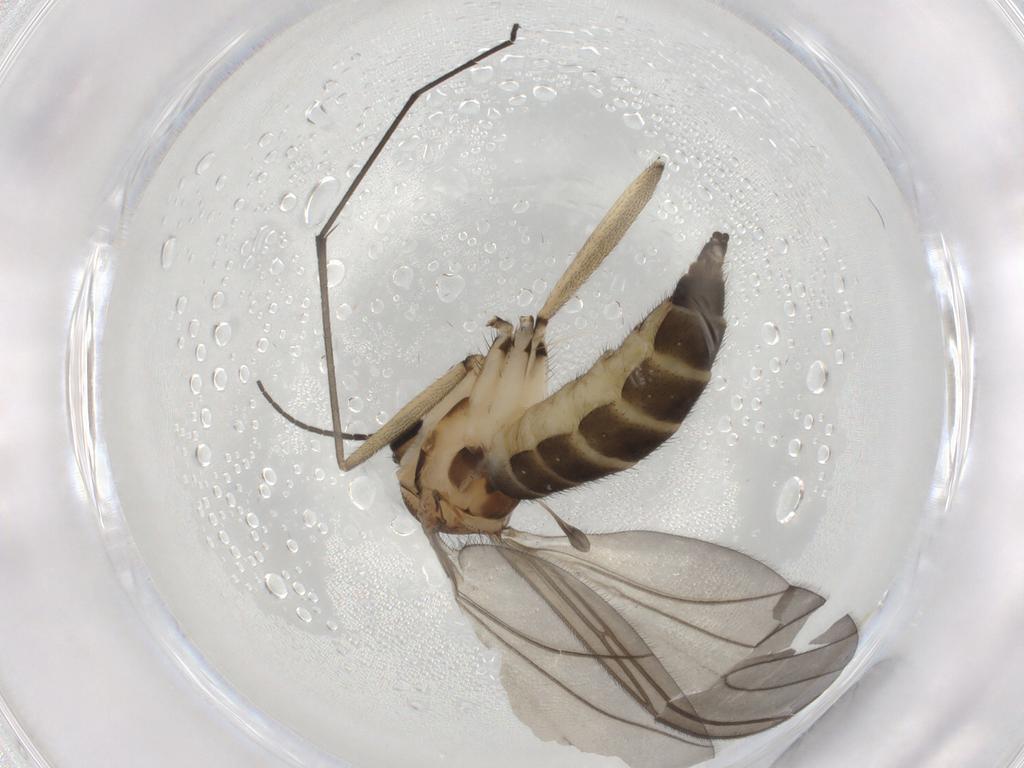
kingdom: Animalia
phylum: Arthropoda
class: Insecta
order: Diptera
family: Sciaridae
